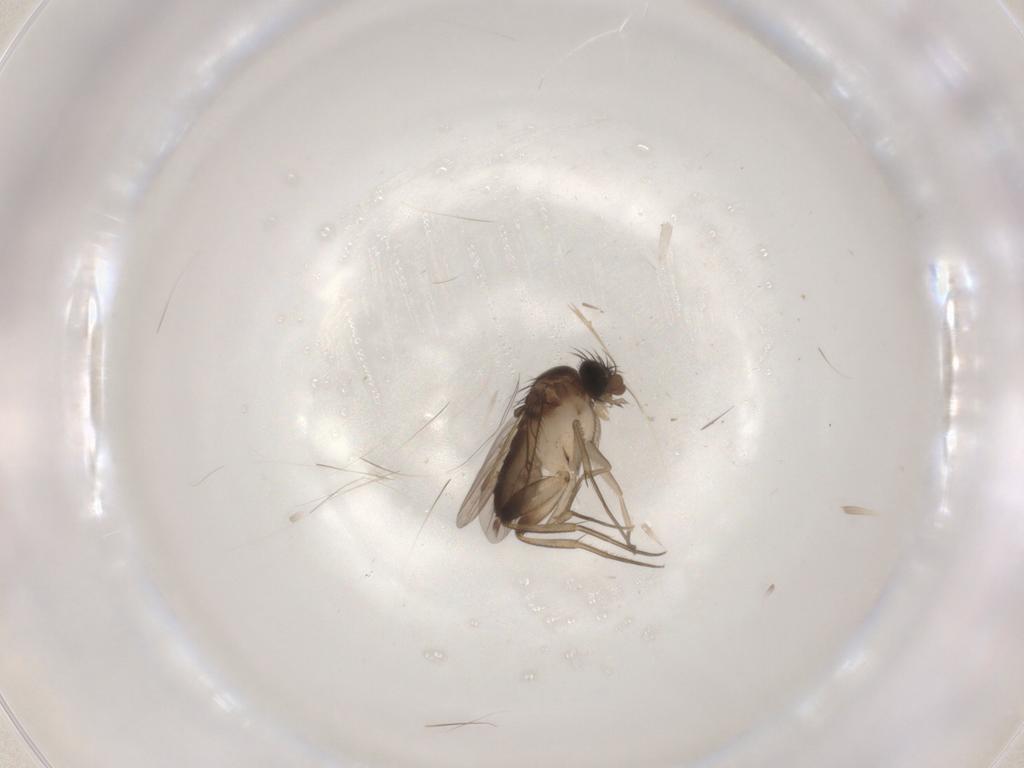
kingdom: Animalia
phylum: Arthropoda
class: Insecta
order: Diptera
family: Phoridae
